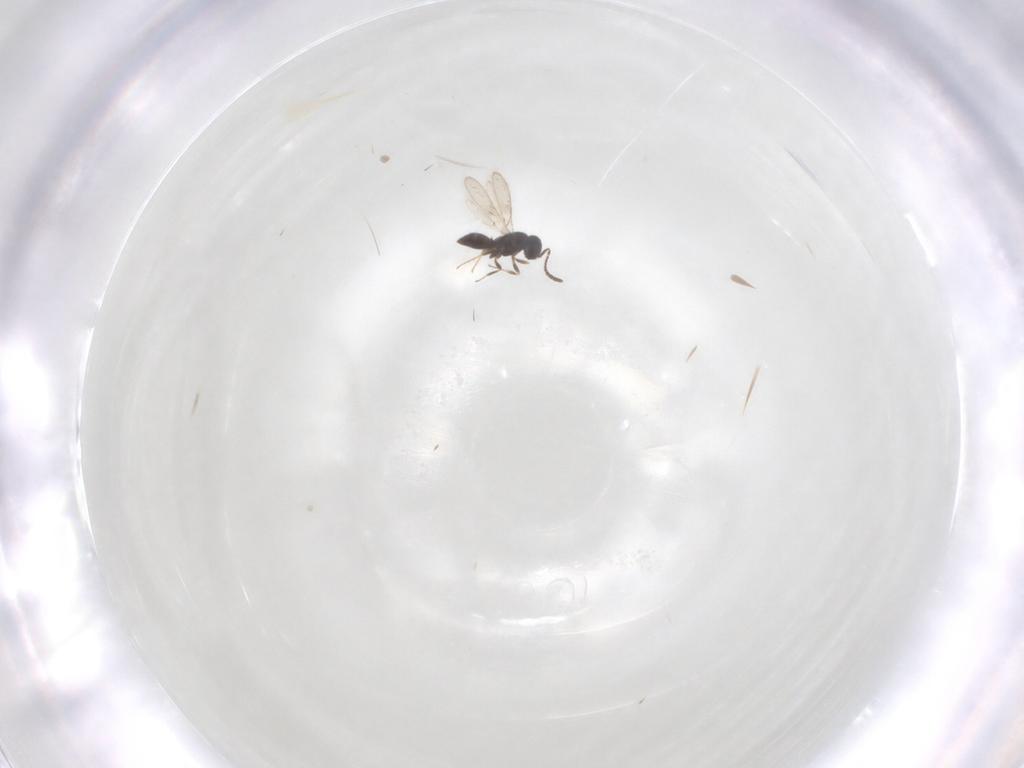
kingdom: Animalia
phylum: Arthropoda
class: Insecta
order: Hymenoptera
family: Scelionidae
